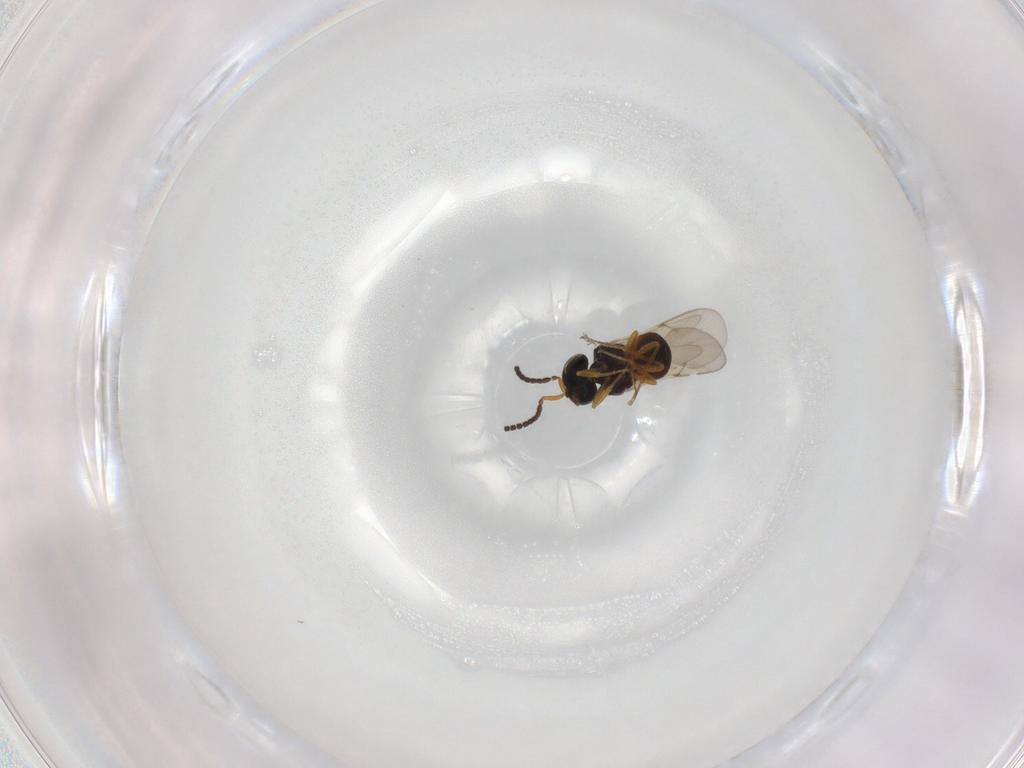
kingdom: Animalia
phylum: Arthropoda
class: Insecta
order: Hymenoptera
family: Scelionidae
